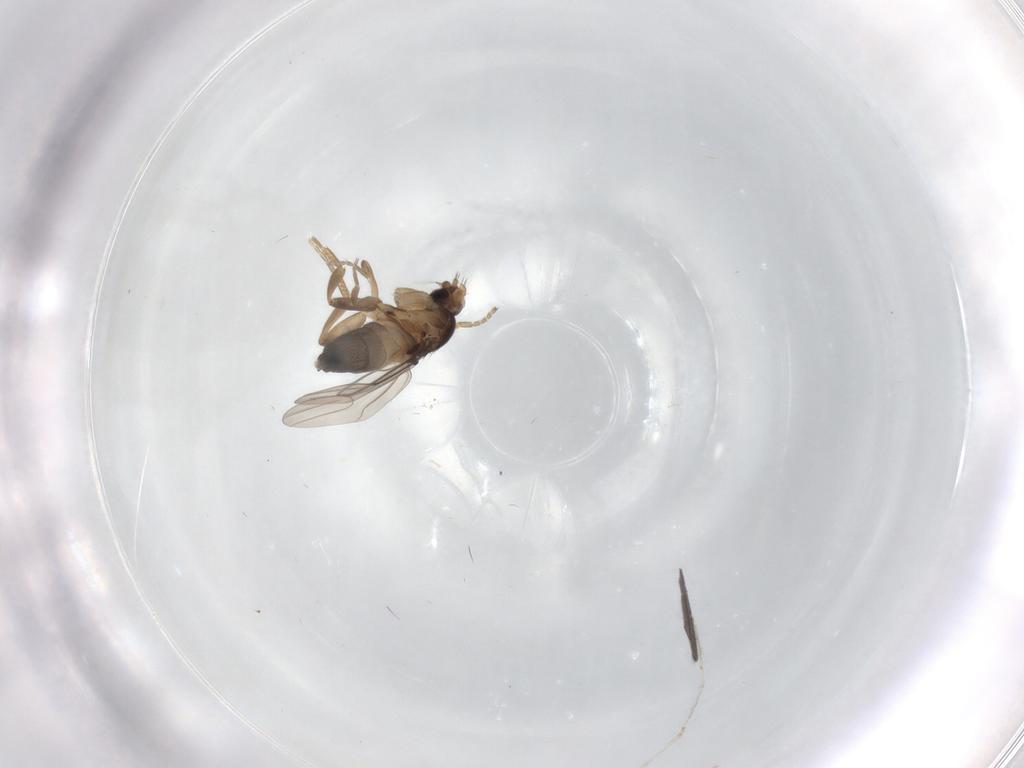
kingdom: Animalia
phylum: Arthropoda
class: Insecta
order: Diptera
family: Cecidomyiidae
